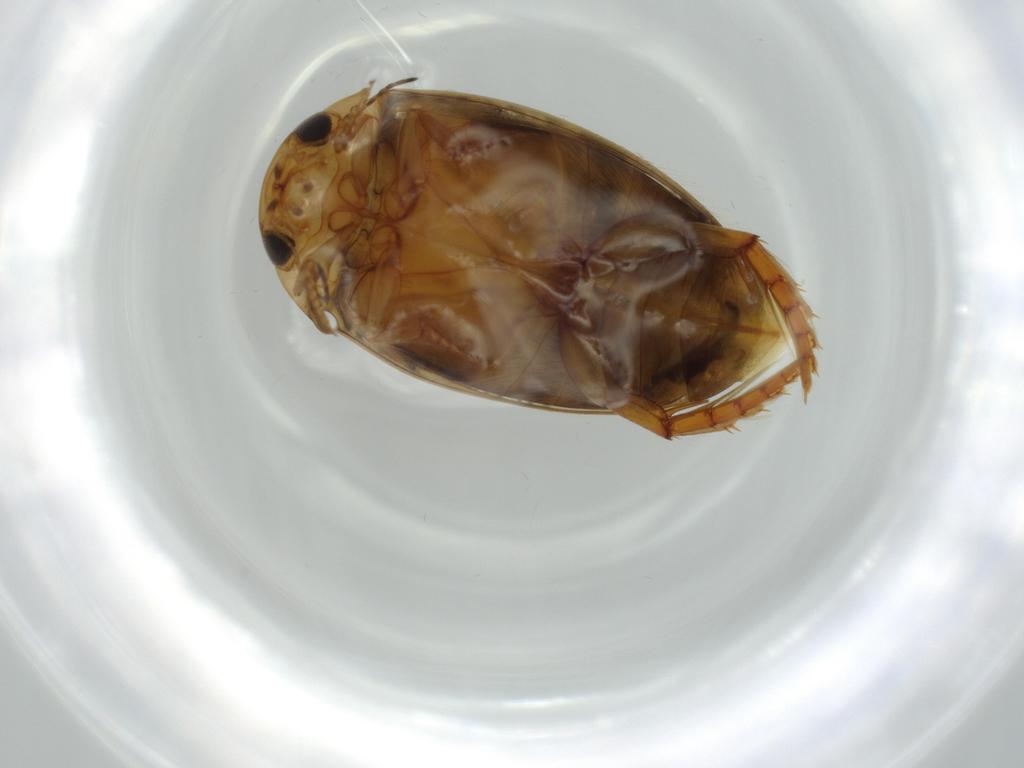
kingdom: Animalia
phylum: Arthropoda
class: Insecta
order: Coleoptera
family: Dytiscidae
